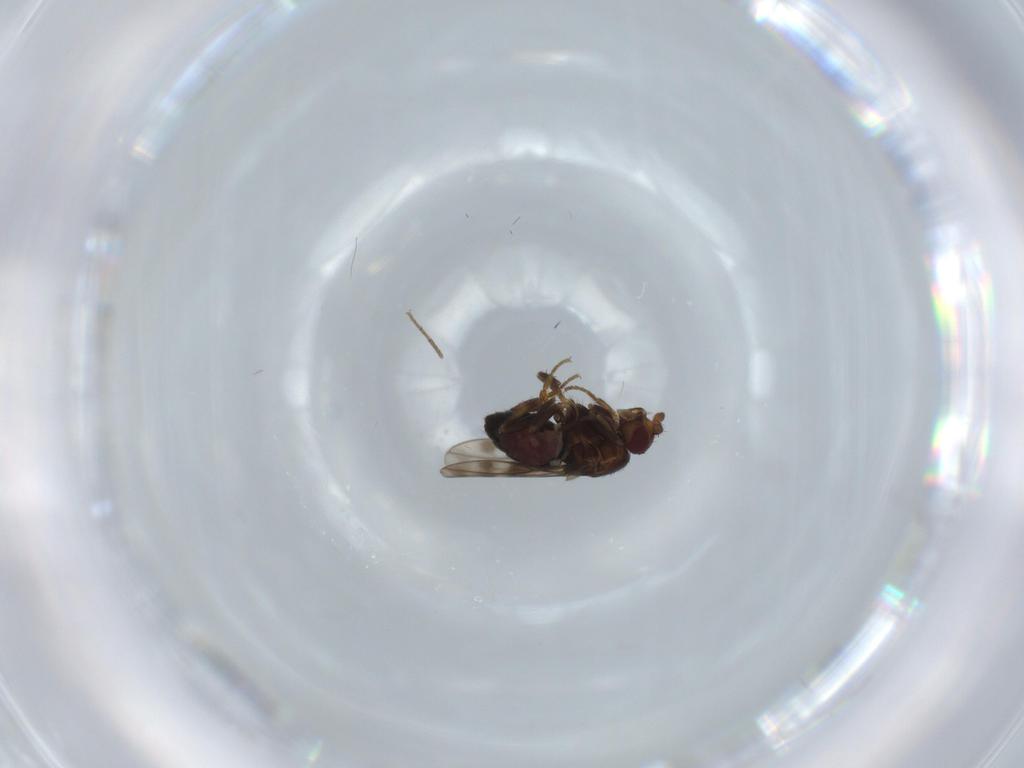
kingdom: Animalia
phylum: Arthropoda
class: Insecta
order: Diptera
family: Sphaeroceridae
